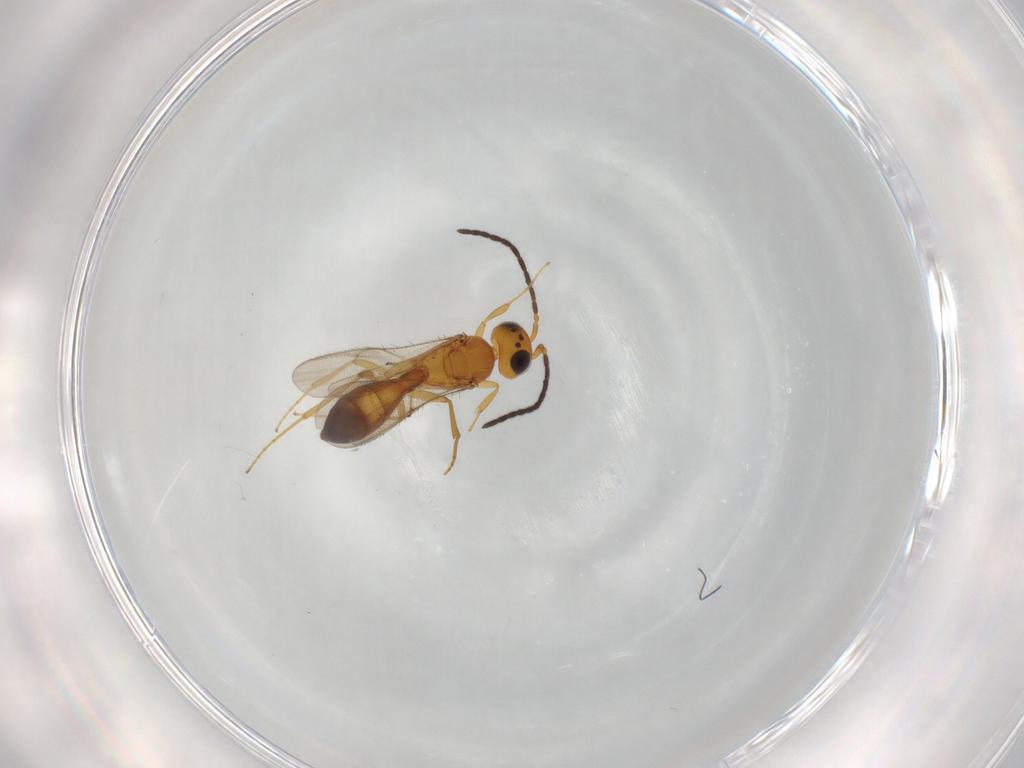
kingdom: Animalia
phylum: Arthropoda
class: Insecta
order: Hymenoptera
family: Scelionidae
